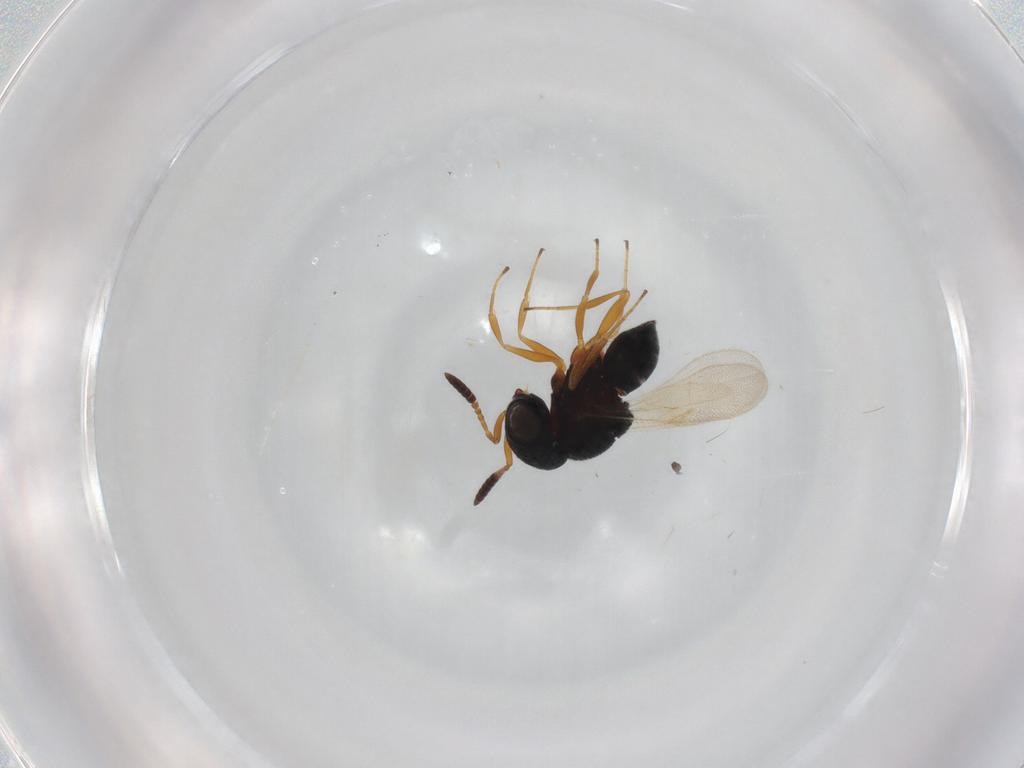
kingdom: Animalia
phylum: Arthropoda
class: Insecta
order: Hymenoptera
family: Scelionidae
